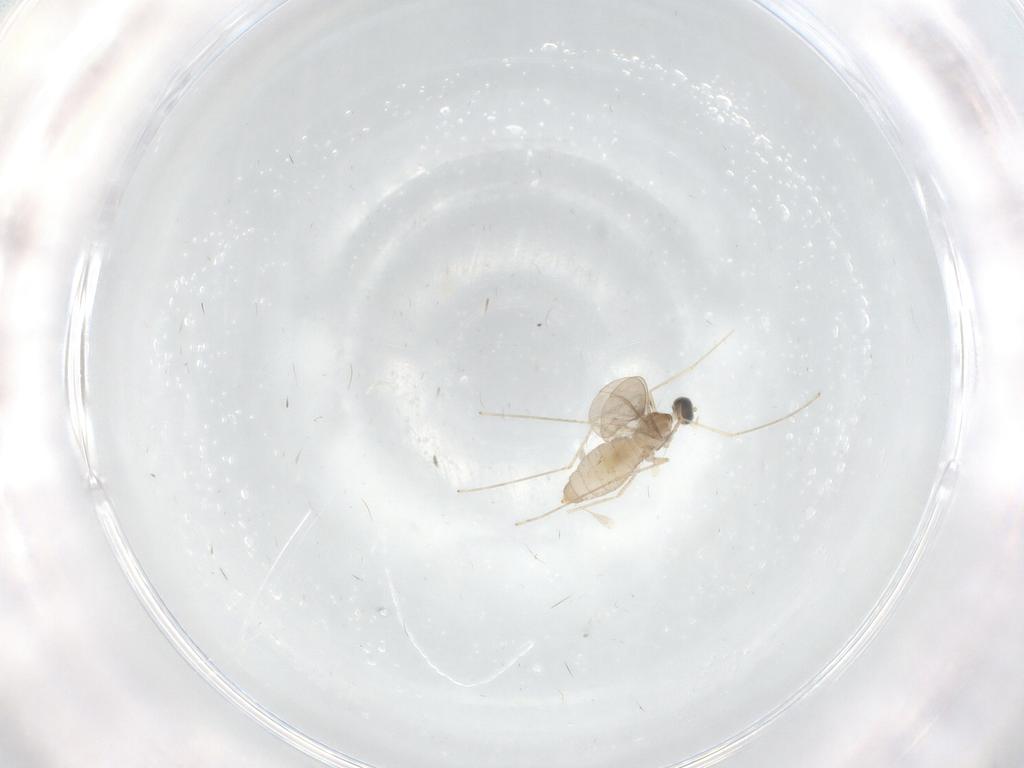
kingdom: Animalia
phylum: Arthropoda
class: Insecta
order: Diptera
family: Cecidomyiidae
